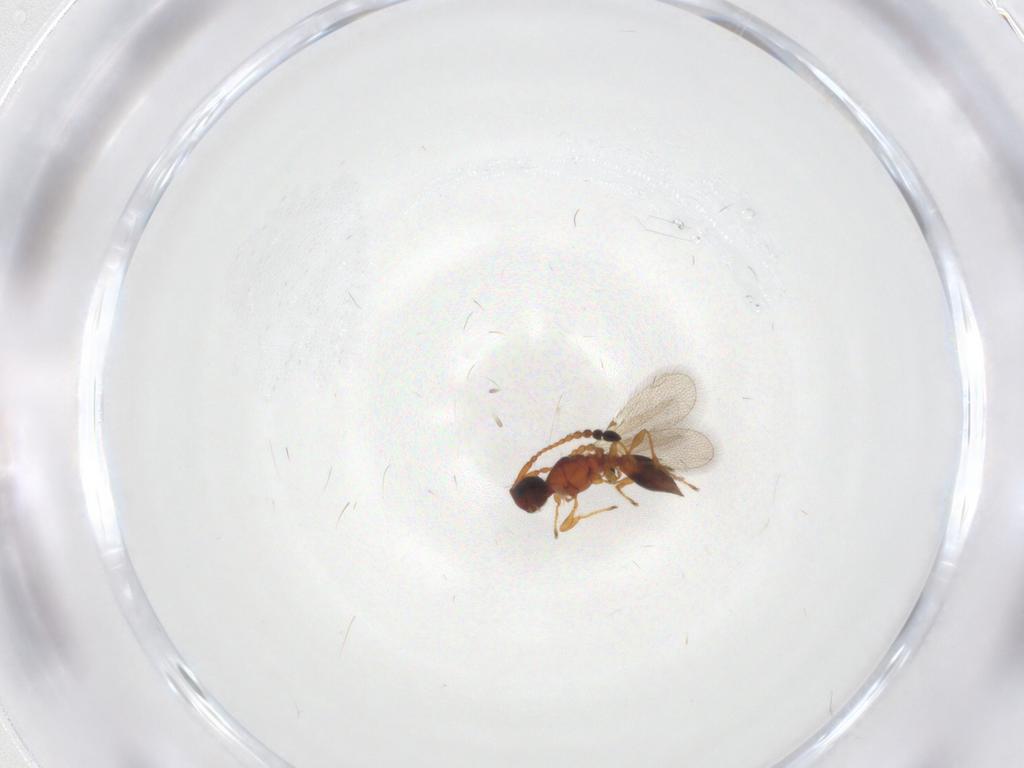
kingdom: Animalia
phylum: Arthropoda
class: Insecta
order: Hymenoptera
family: Diapriidae
